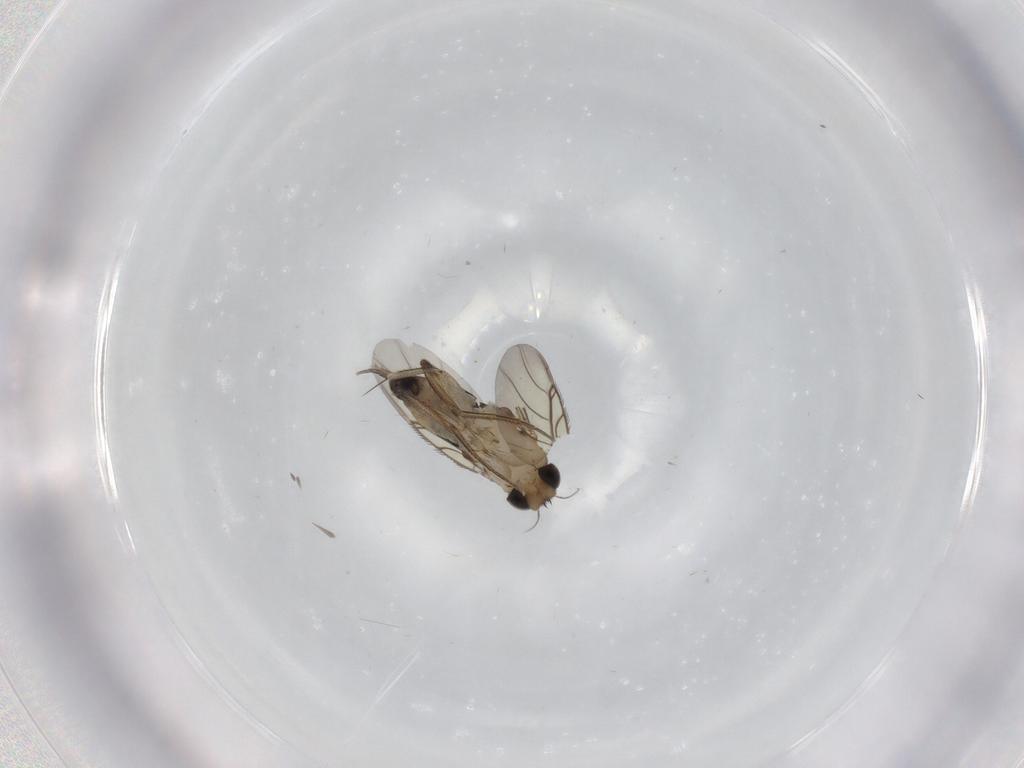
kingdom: Animalia
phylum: Arthropoda
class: Insecta
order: Diptera
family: Phoridae
